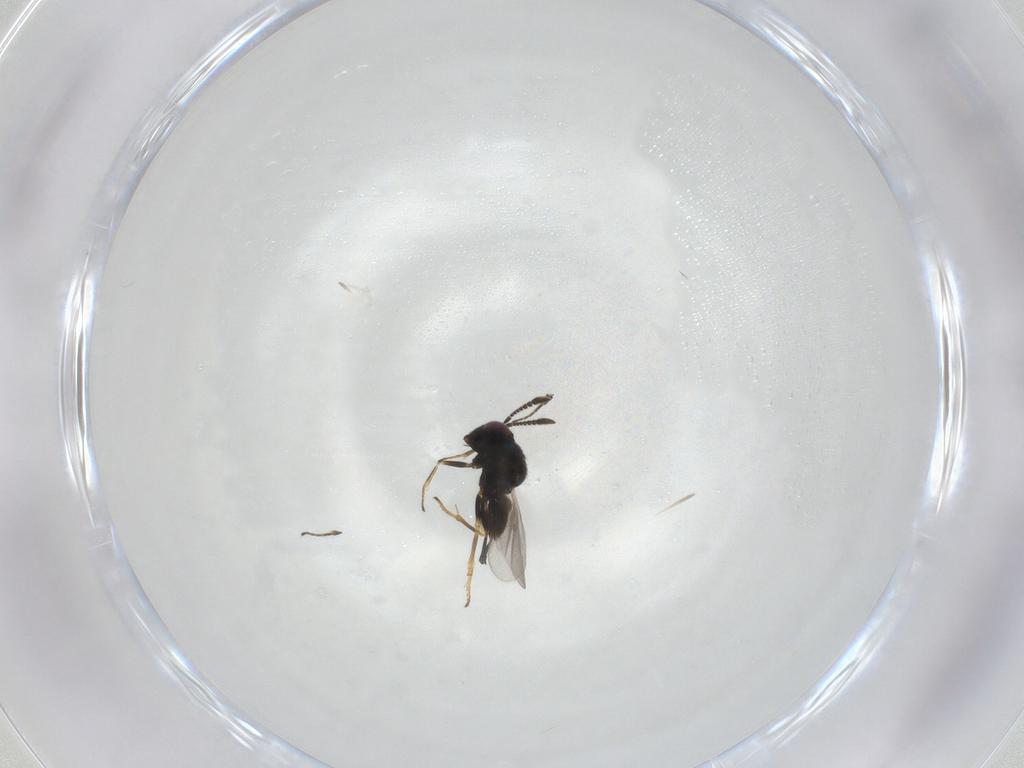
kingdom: Animalia
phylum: Arthropoda
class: Insecta
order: Hymenoptera
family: Encyrtidae
